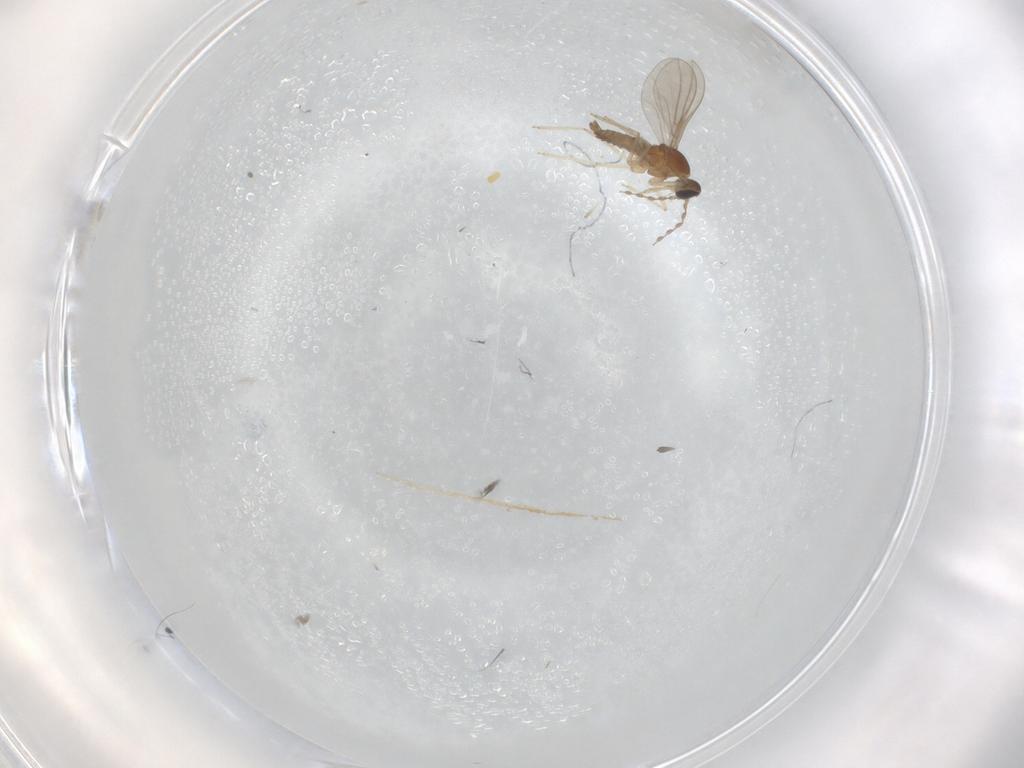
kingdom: Animalia
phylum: Arthropoda
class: Insecta
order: Diptera
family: Cecidomyiidae
